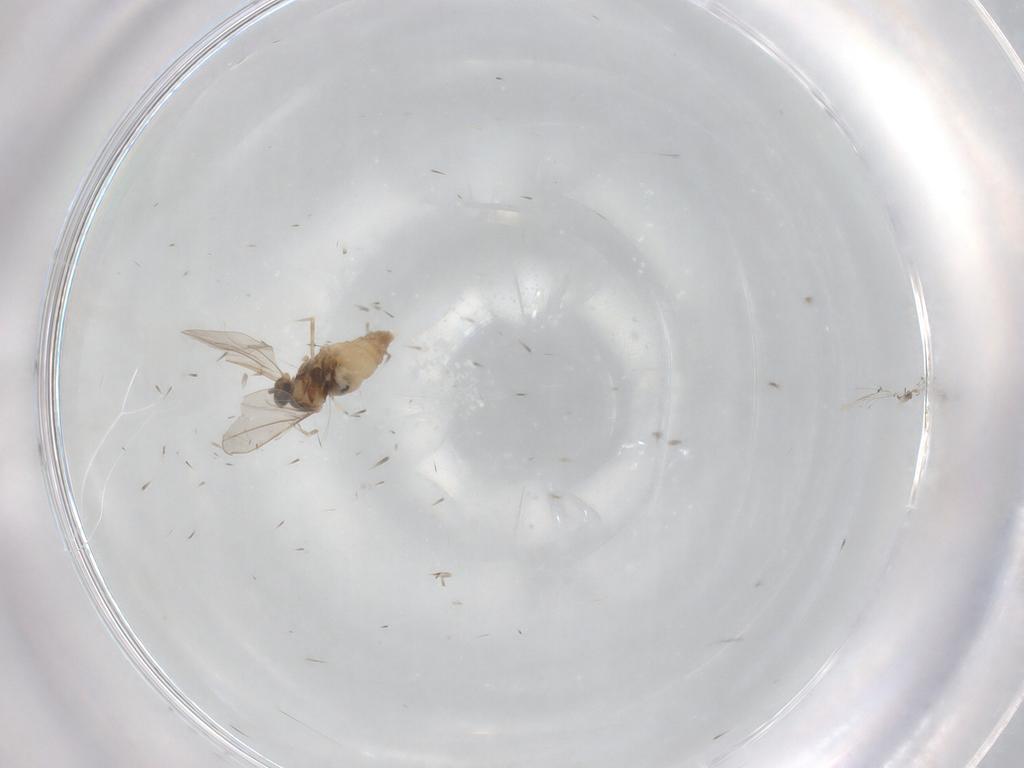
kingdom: Animalia
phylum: Arthropoda
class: Insecta
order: Diptera
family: Cecidomyiidae
